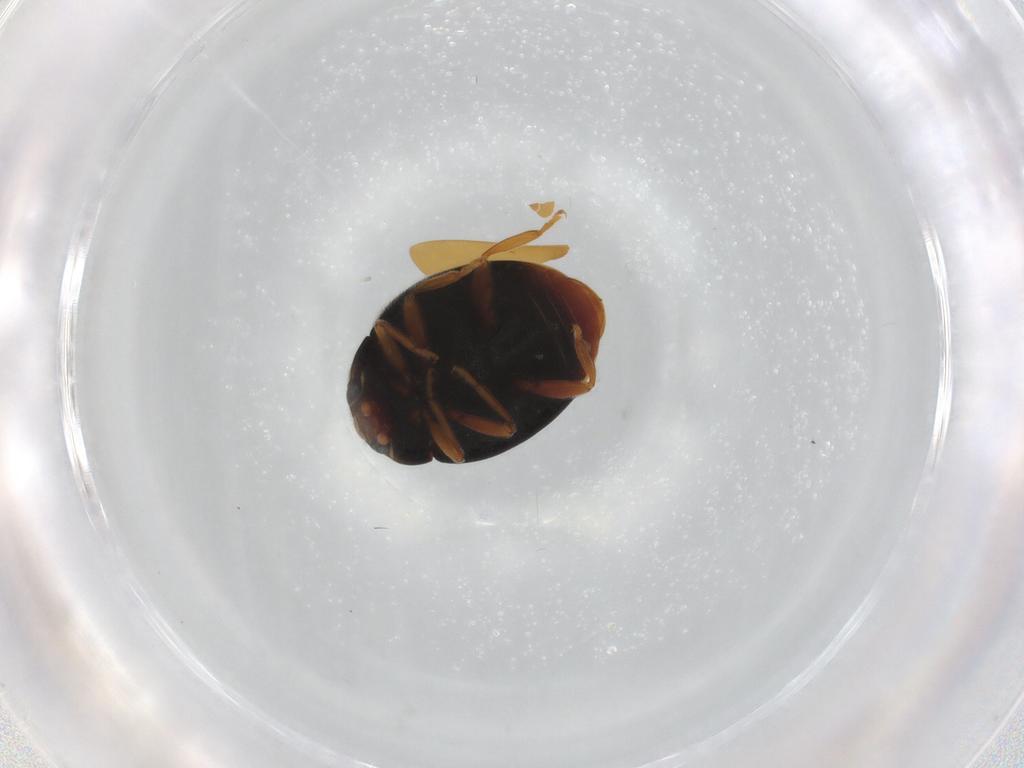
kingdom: Animalia
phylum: Arthropoda
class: Insecta
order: Coleoptera
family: Coccinellidae
